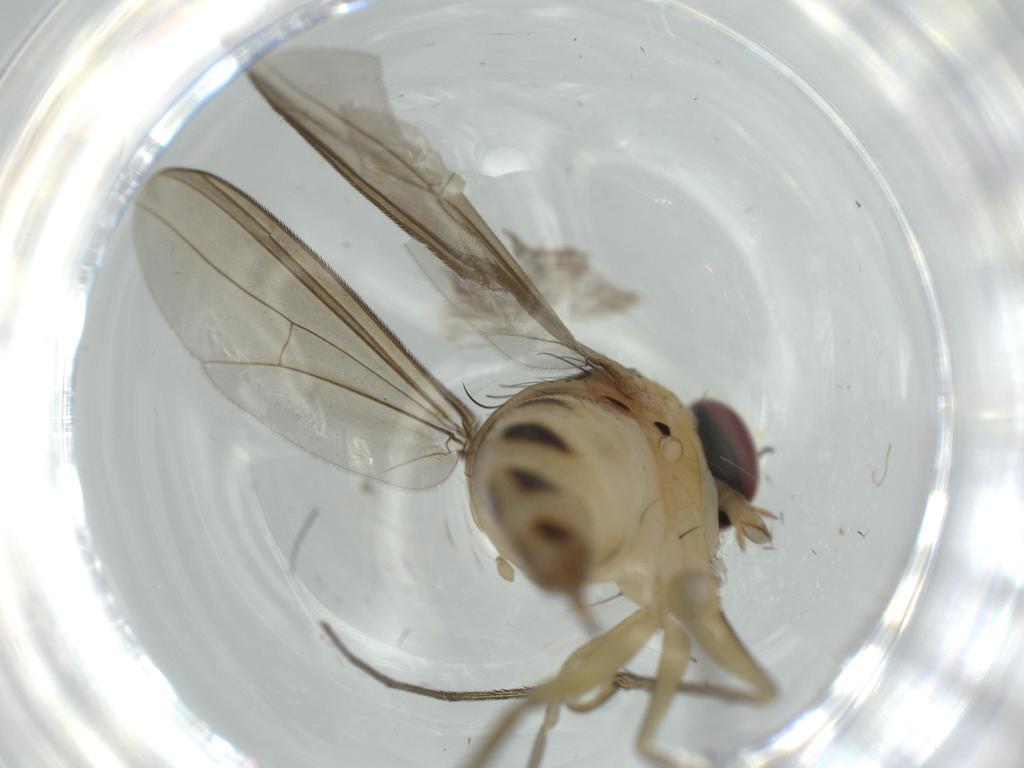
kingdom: Animalia
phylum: Arthropoda
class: Insecta
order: Diptera
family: Dolichopodidae
